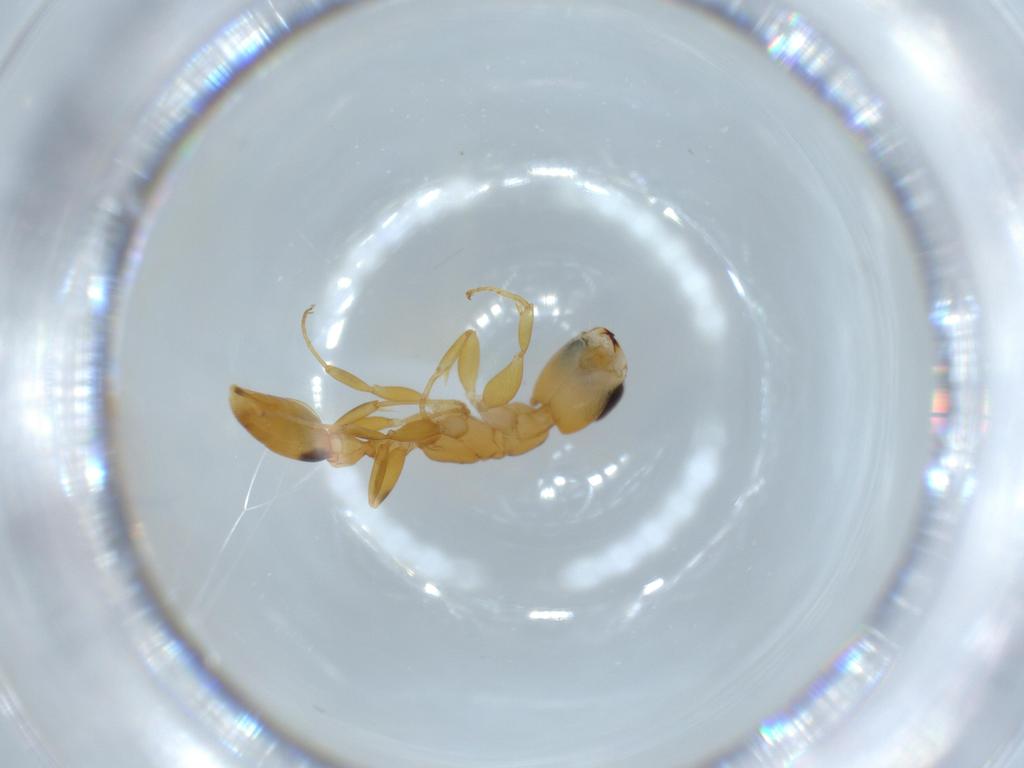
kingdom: Animalia
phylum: Arthropoda
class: Insecta
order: Hymenoptera
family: Formicidae
